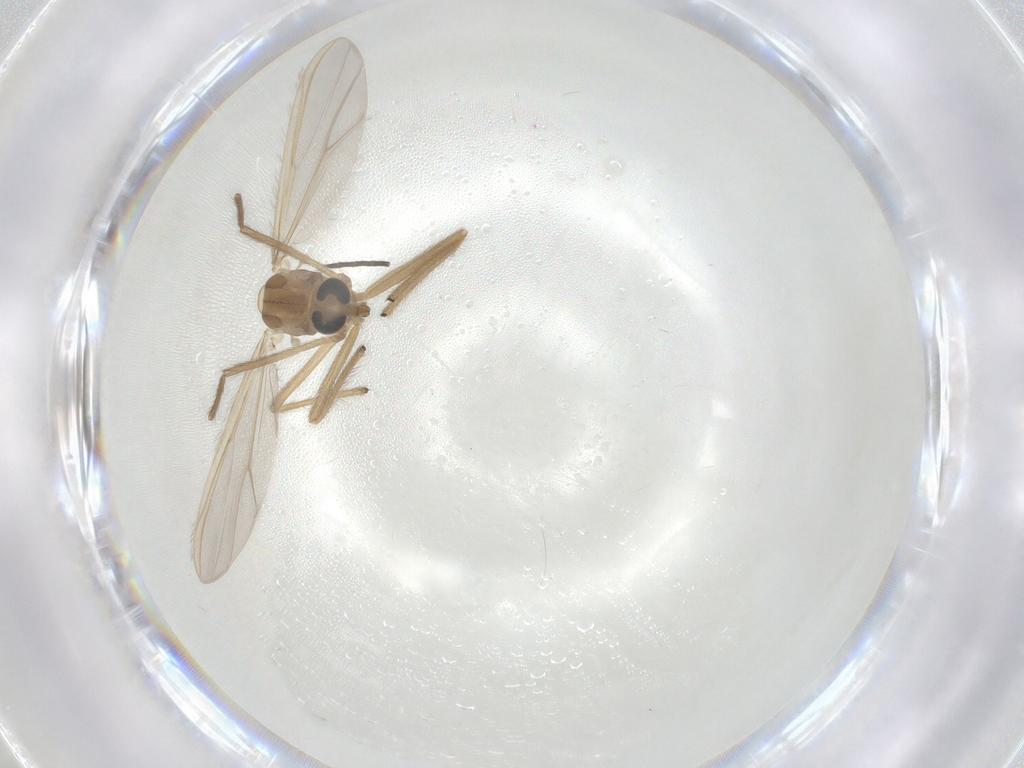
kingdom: Animalia
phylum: Arthropoda
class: Insecta
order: Diptera
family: Chironomidae
